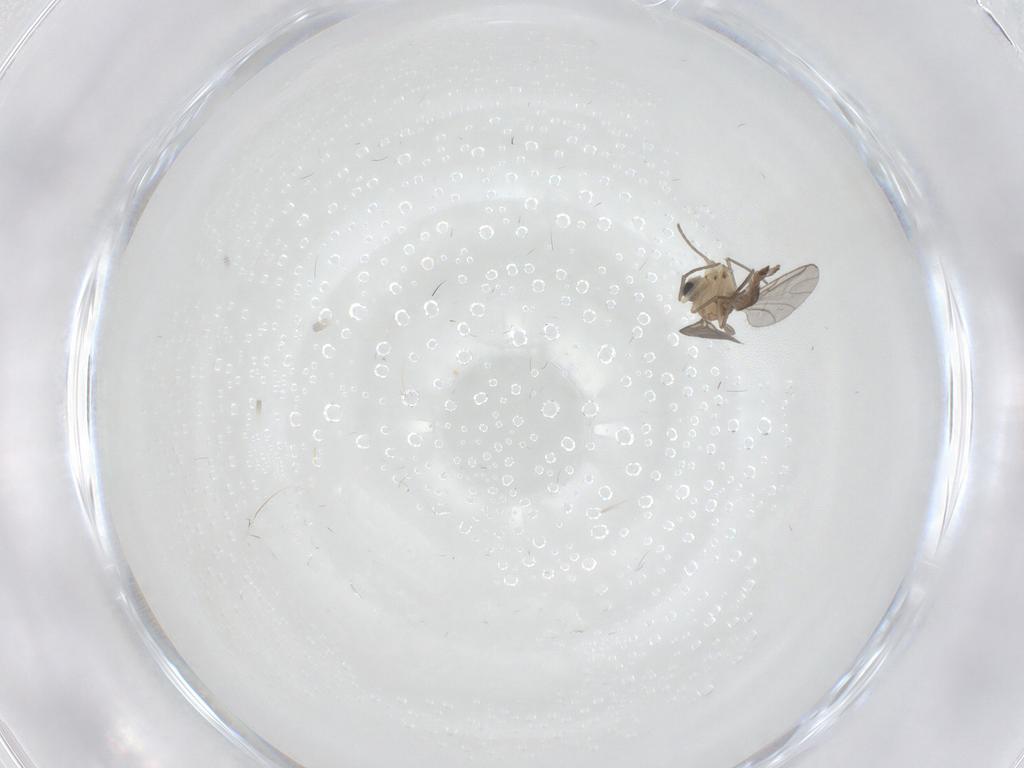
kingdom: Animalia
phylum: Arthropoda
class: Insecta
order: Diptera
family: Sciaridae
